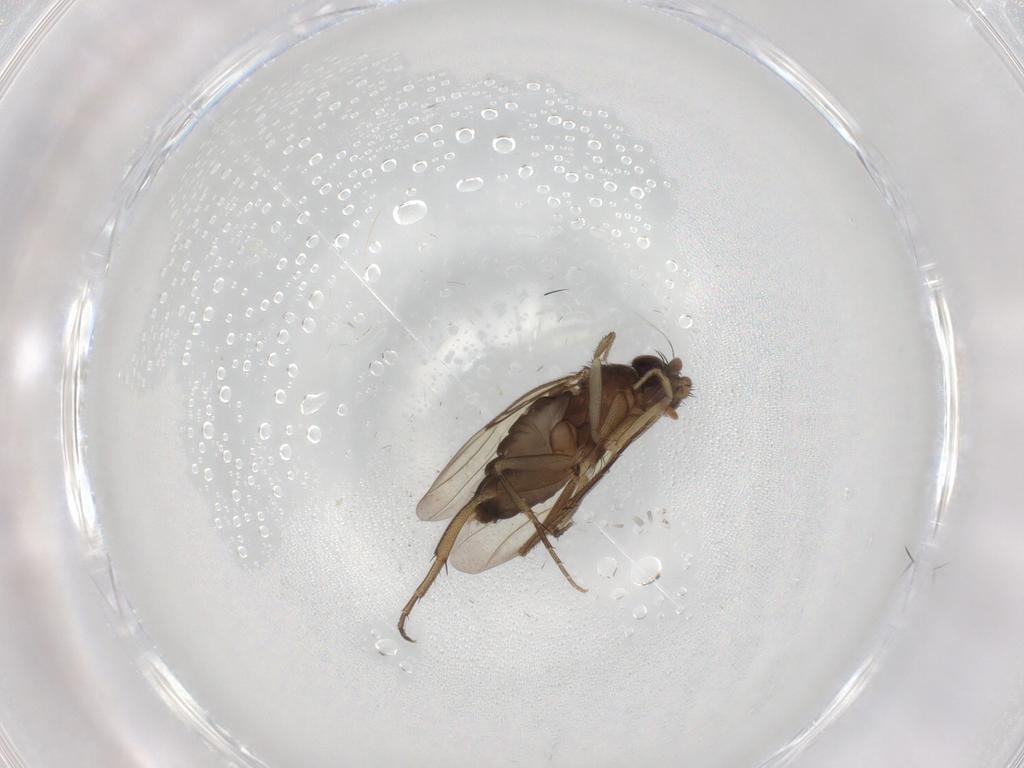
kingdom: Animalia
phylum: Arthropoda
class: Insecta
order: Diptera
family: Phoridae
